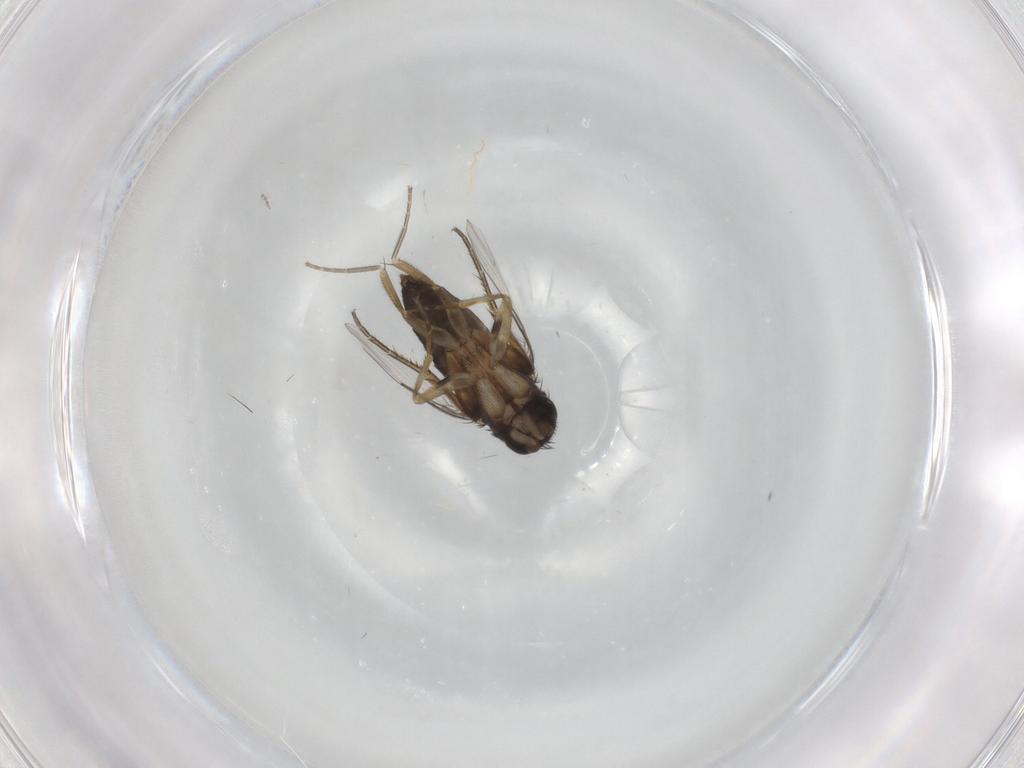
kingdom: Animalia
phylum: Arthropoda
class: Insecta
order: Diptera
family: Phoridae
